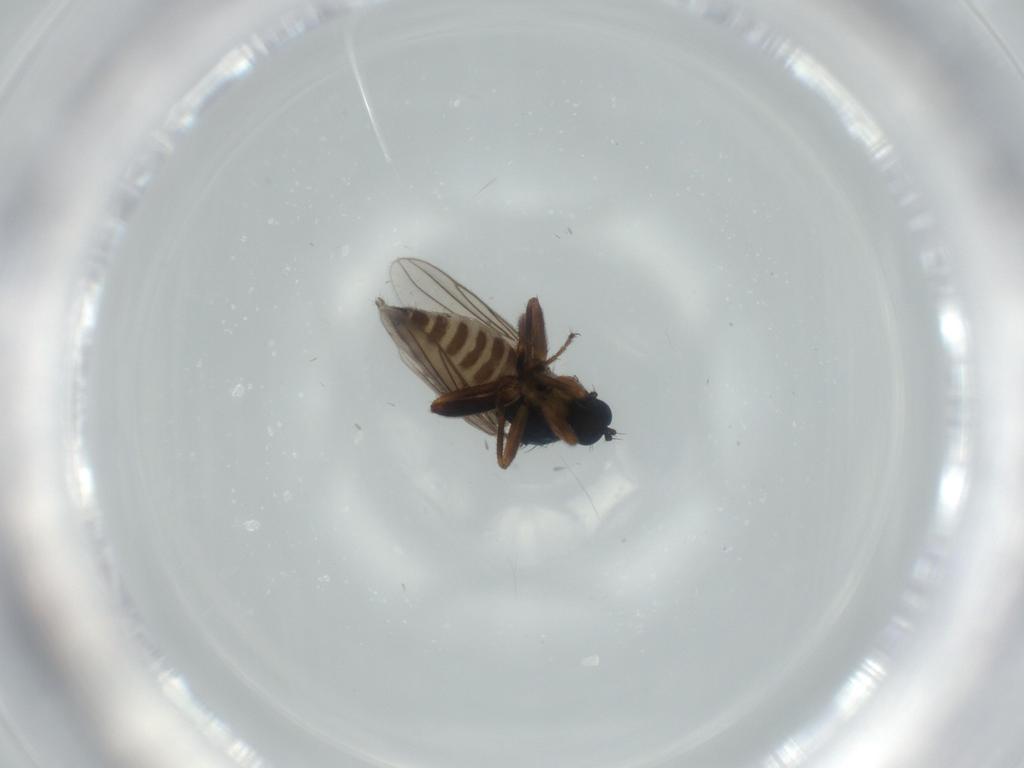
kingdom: Animalia
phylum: Arthropoda
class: Insecta
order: Diptera
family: Hybotidae
